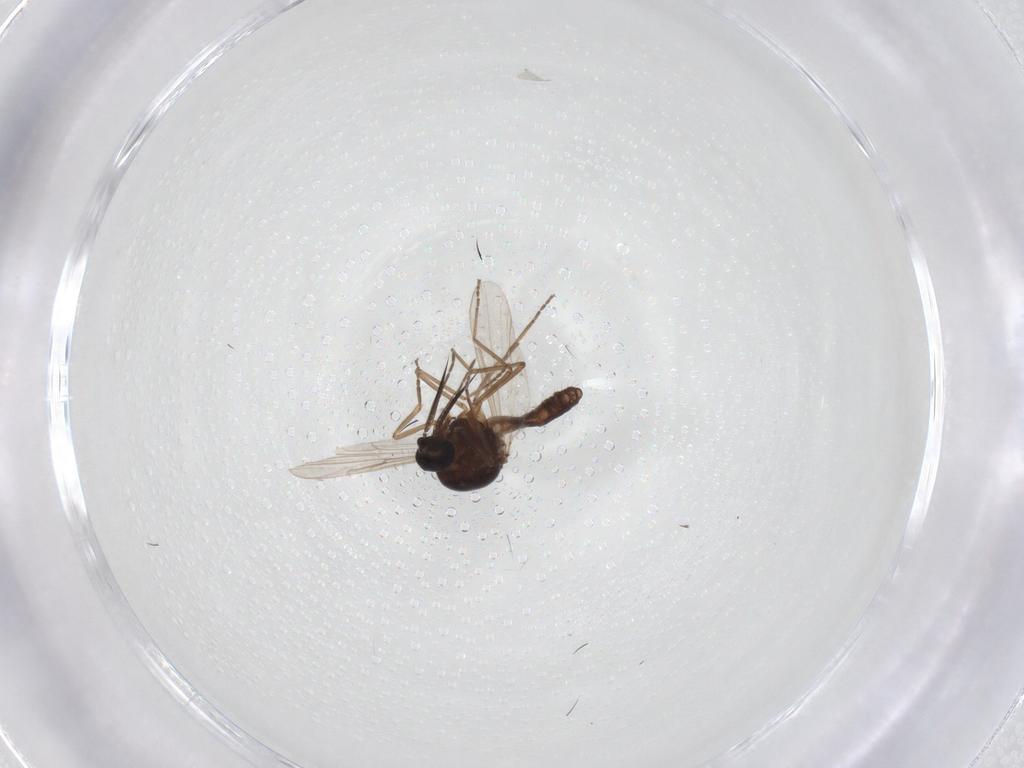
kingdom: Animalia
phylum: Arthropoda
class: Insecta
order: Diptera
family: Ceratopogonidae
